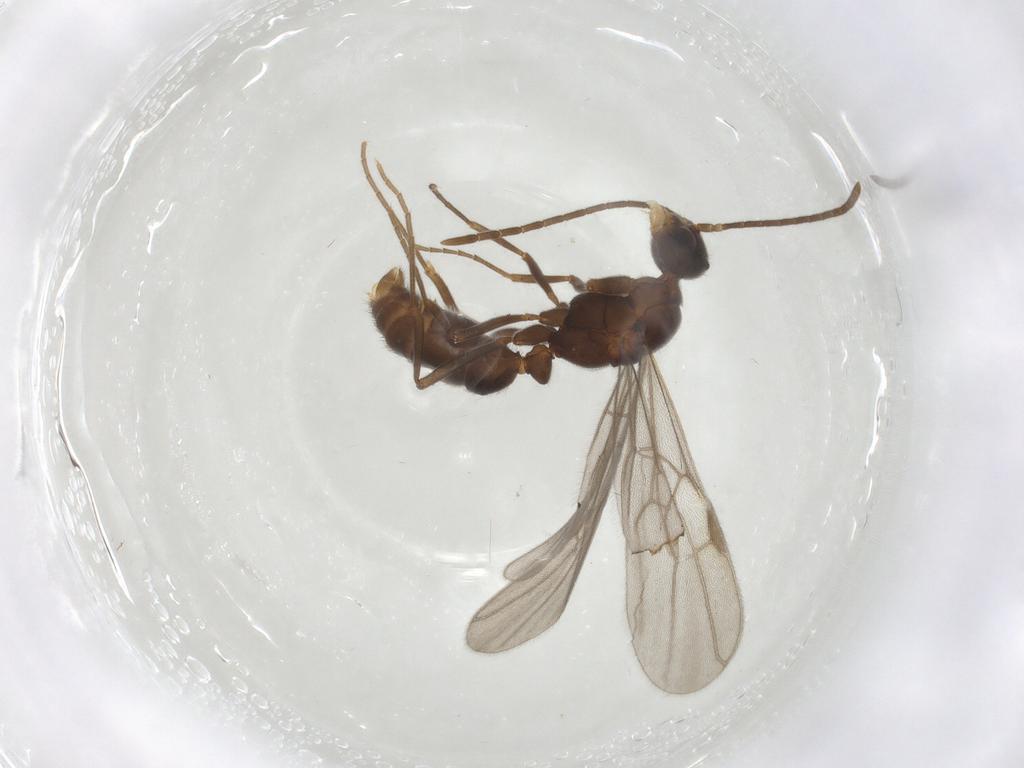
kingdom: Animalia
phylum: Arthropoda
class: Insecta
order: Hymenoptera
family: Formicidae
